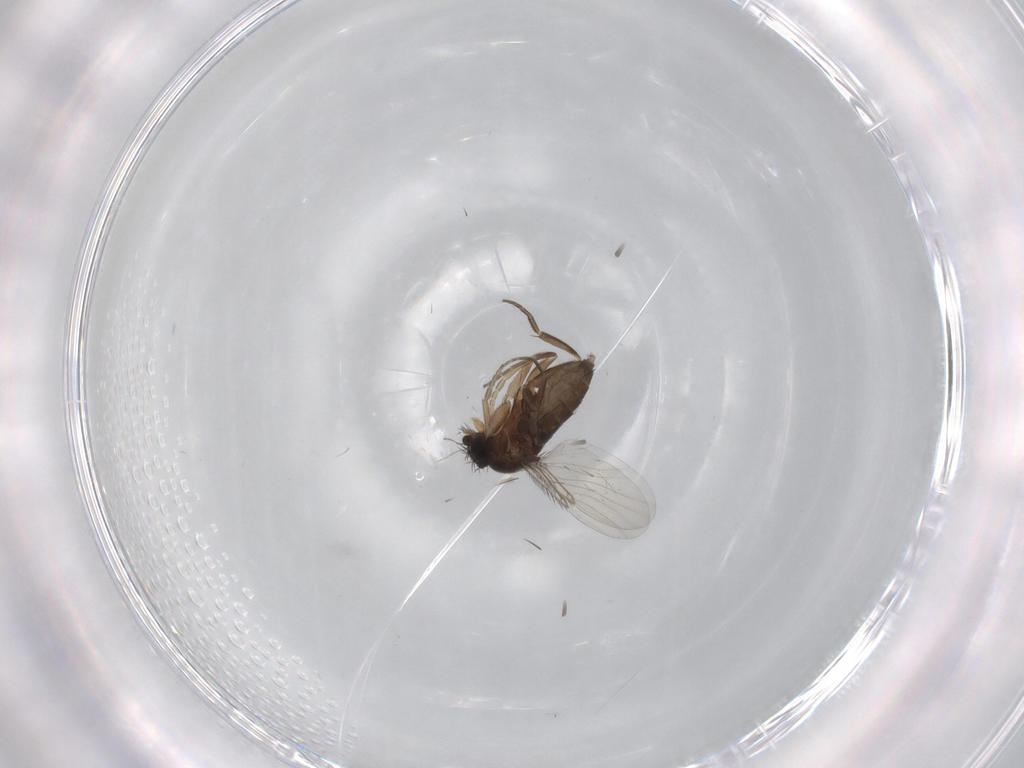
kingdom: Animalia
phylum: Arthropoda
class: Insecta
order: Diptera
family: Phoridae
